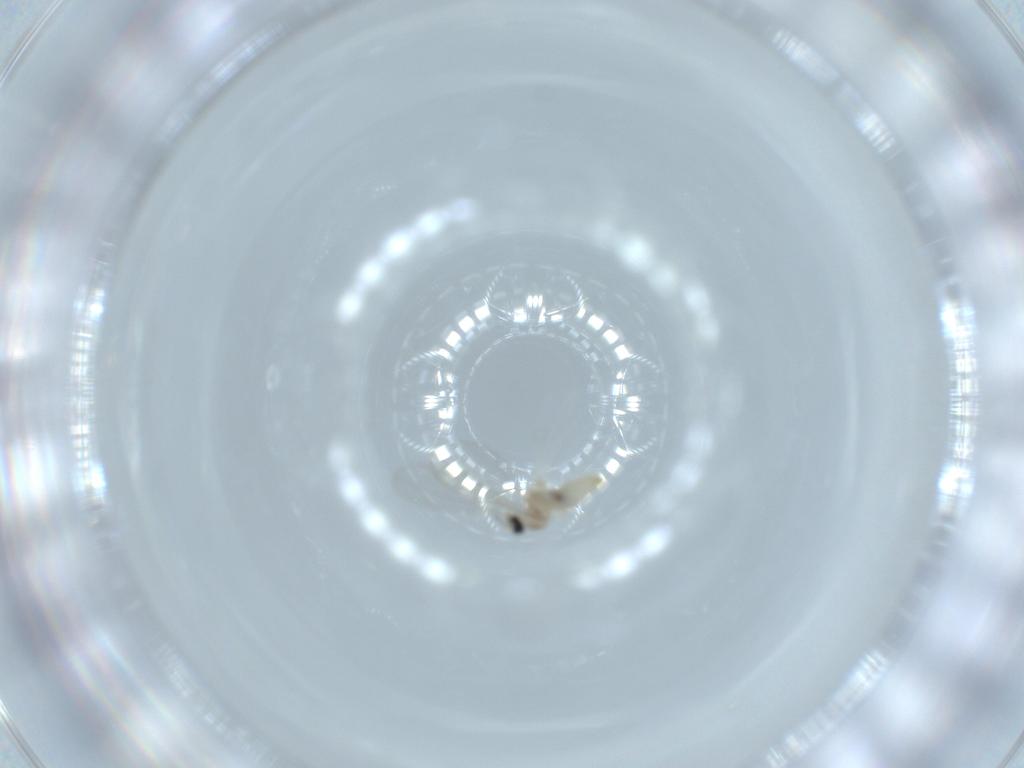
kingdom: Animalia
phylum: Arthropoda
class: Insecta
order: Diptera
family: Cecidomyiidae
